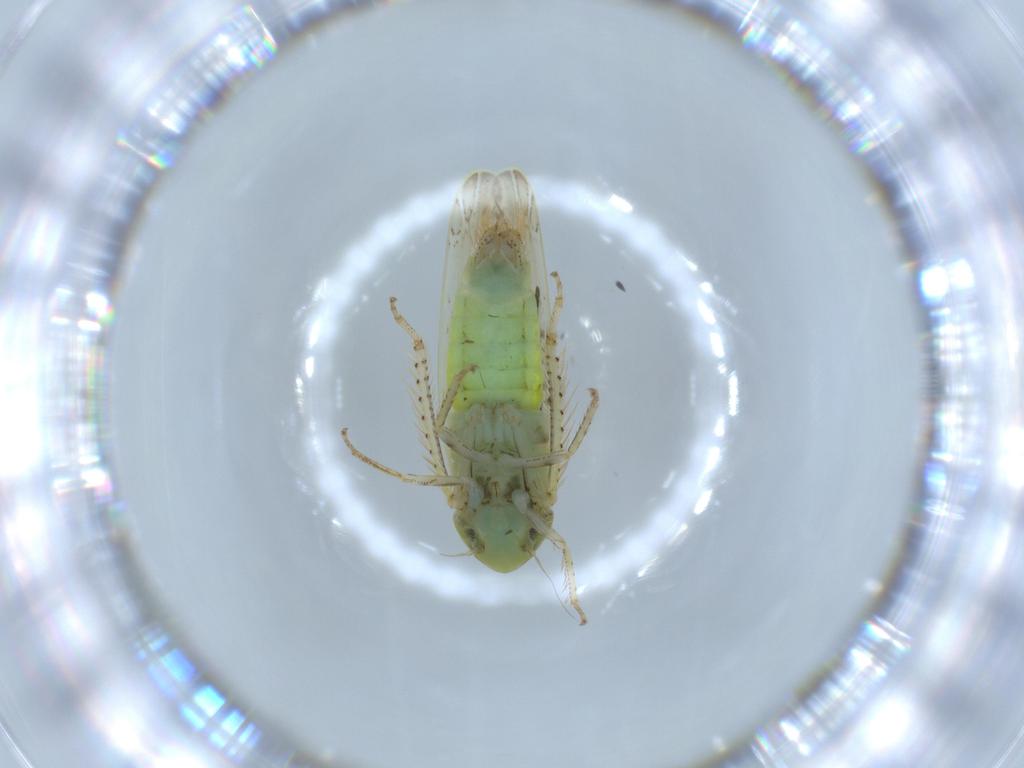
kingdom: Animalia
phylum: Arthropoda
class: Insecta
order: Hemiptera
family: Cicadellidae
